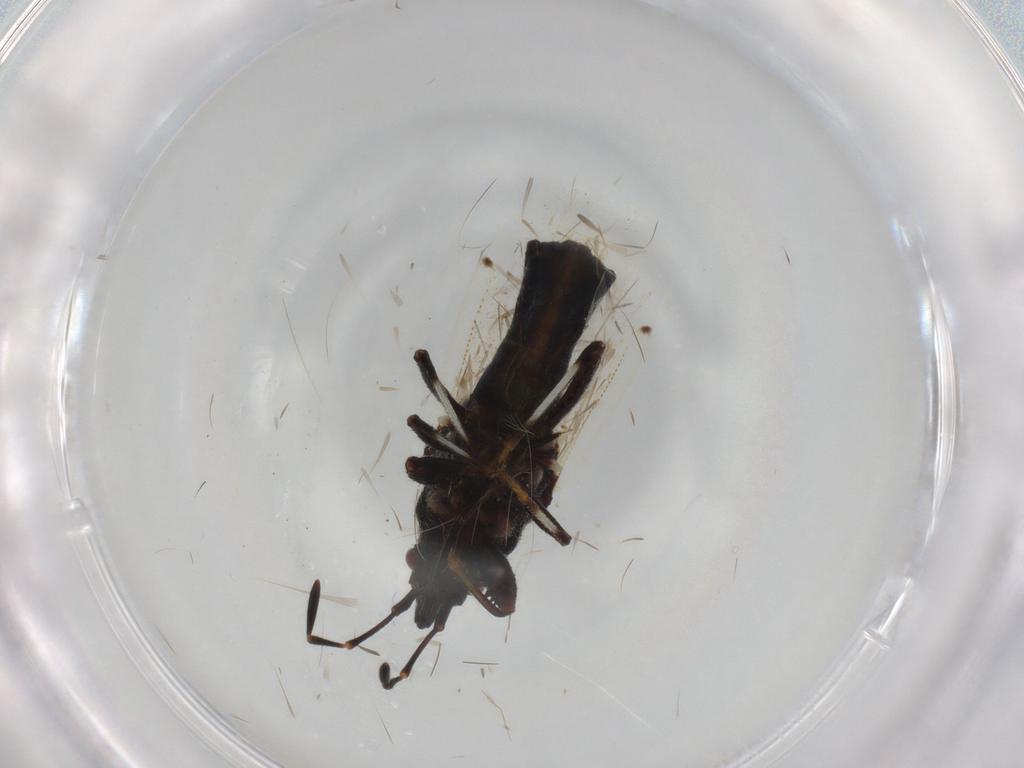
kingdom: Animalia
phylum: Arthropoda
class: Insecta
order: Hemiptera
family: Oxycarenidae
